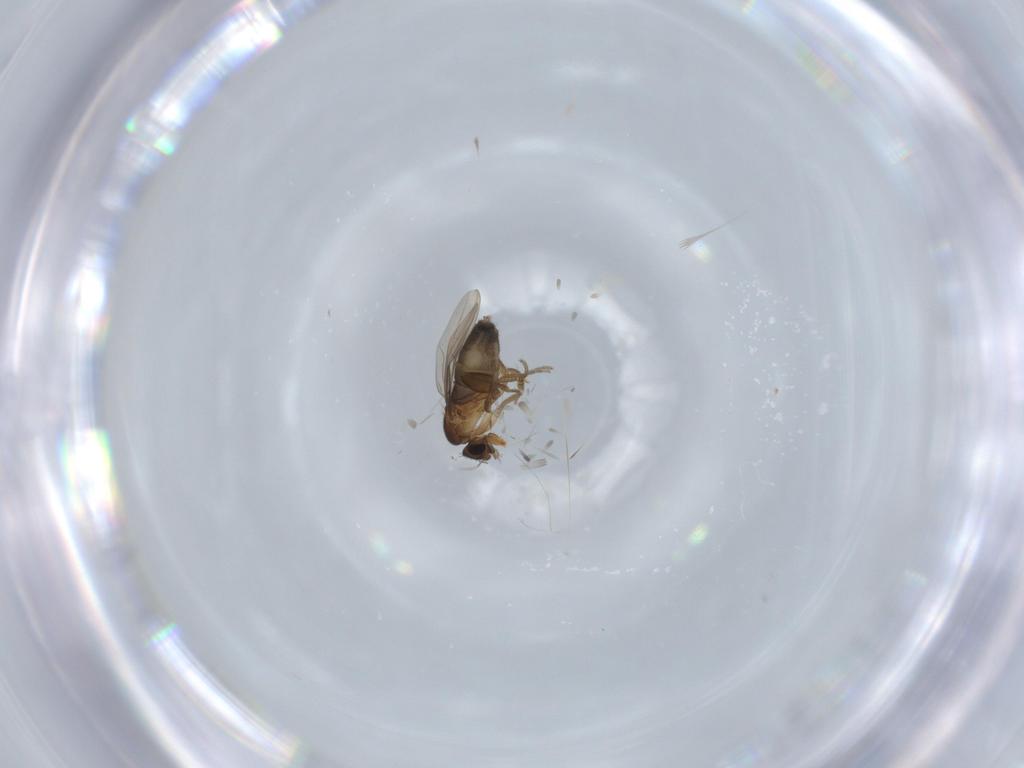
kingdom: Animalia
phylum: Arthropoda
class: Insecta
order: Diptera
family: Phoridae
